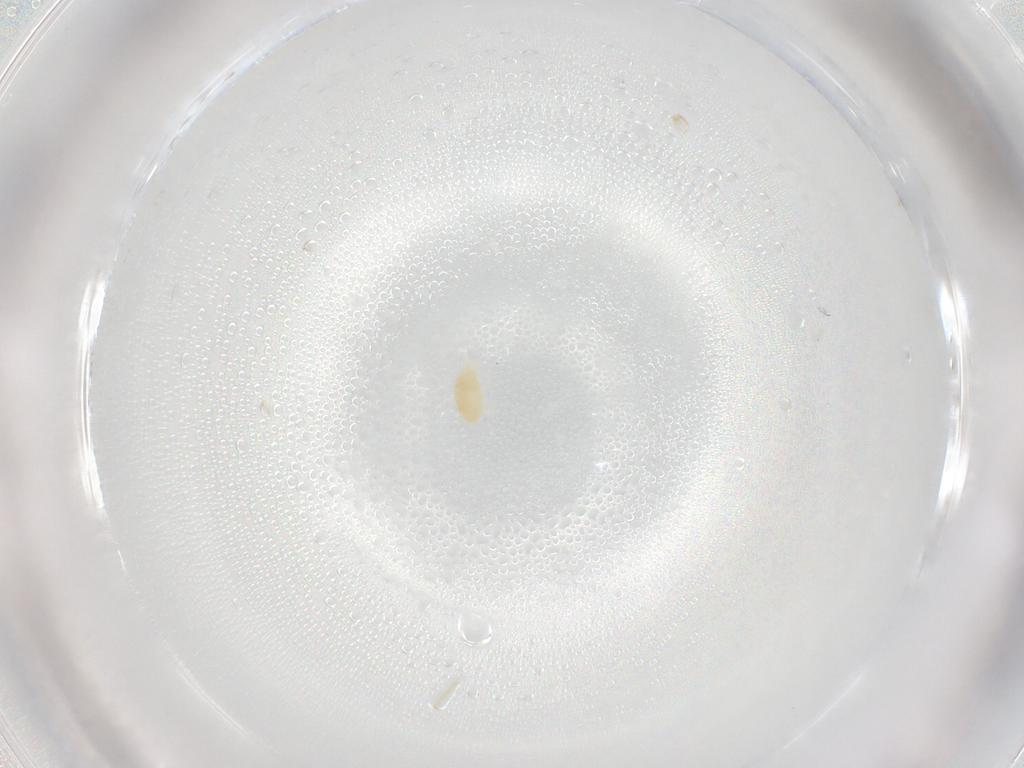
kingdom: Animalia
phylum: Arthropoda
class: Arachnida
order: Trombidiformes
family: Eupodidae
